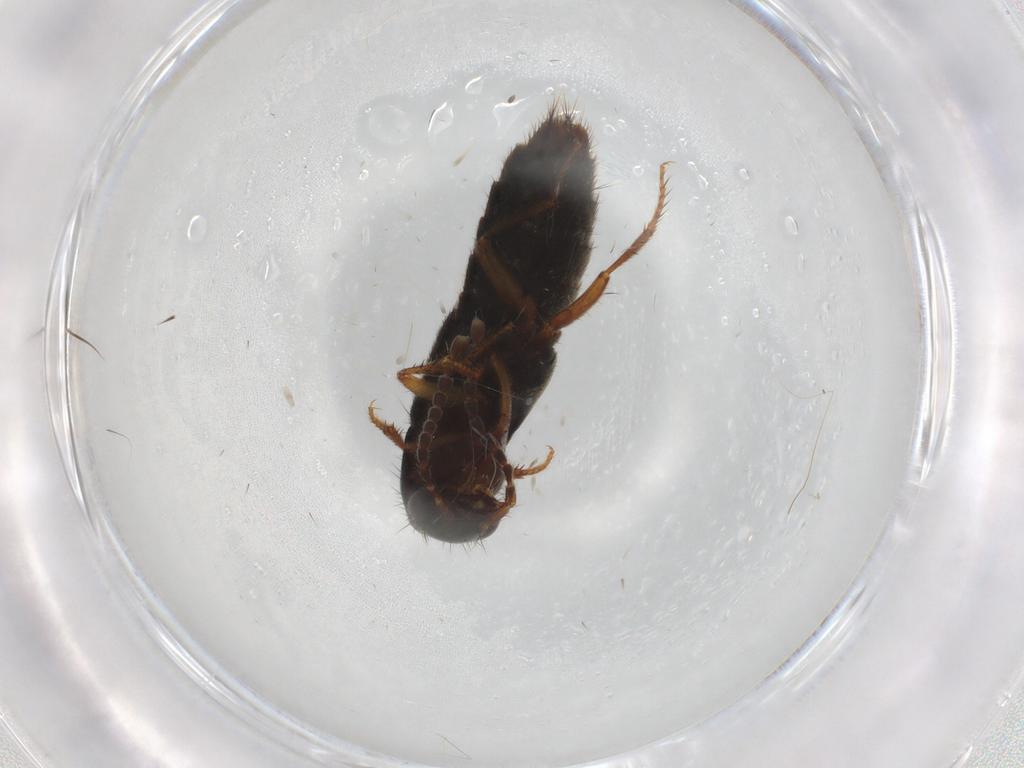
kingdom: Animalia
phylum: Arthropoda
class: Insecta
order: Coleoptera
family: Staphylinidae
